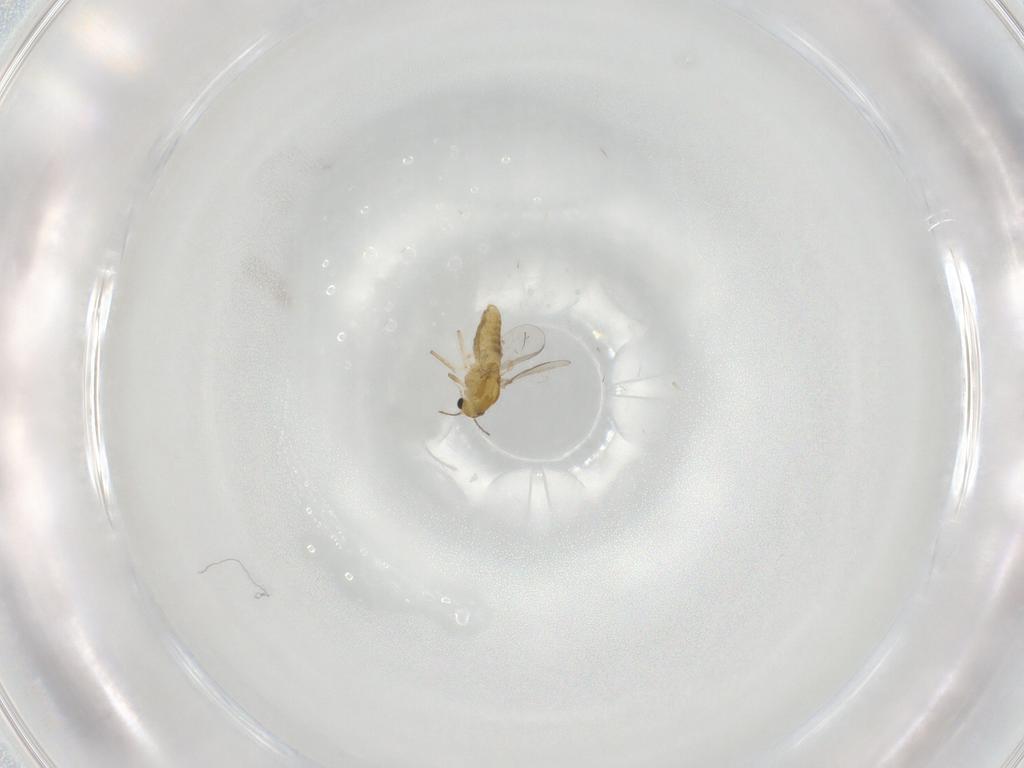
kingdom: Animalia
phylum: Arthropoda
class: Insecta
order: Diptera
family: Chironomidae
